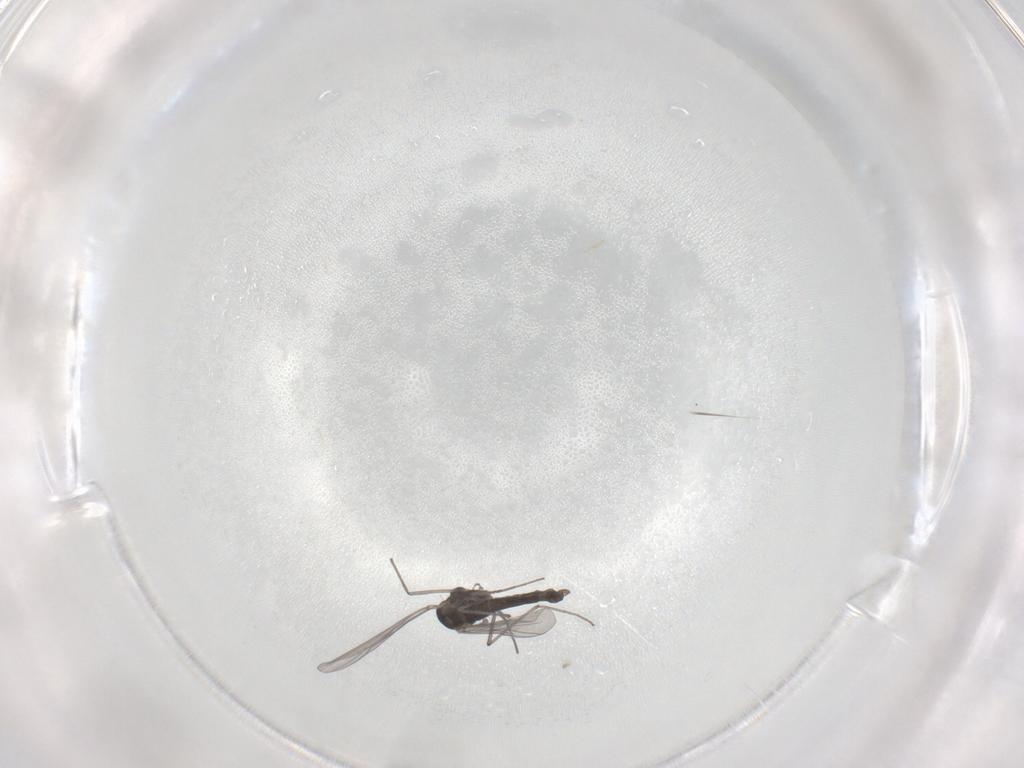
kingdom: Animalia
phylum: Arthropoda
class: Insecta
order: Diptera
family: Chironomidae
